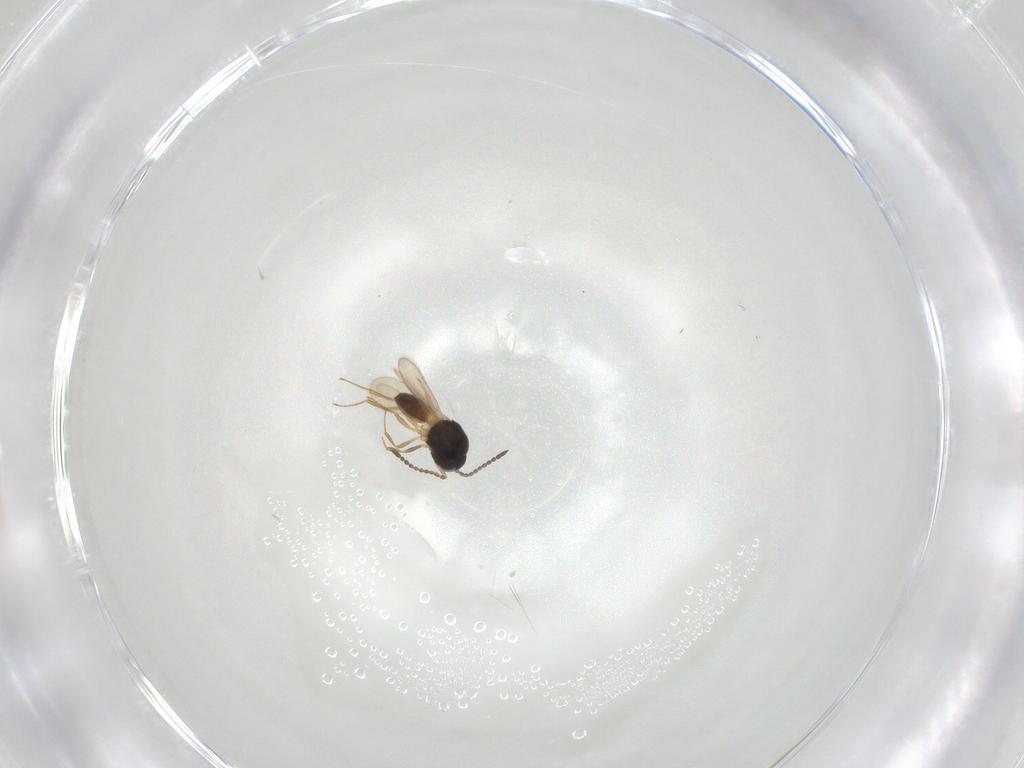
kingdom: Animalia
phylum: Arthropoda
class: Insecta
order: Hymenoptera
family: Scelionidae
